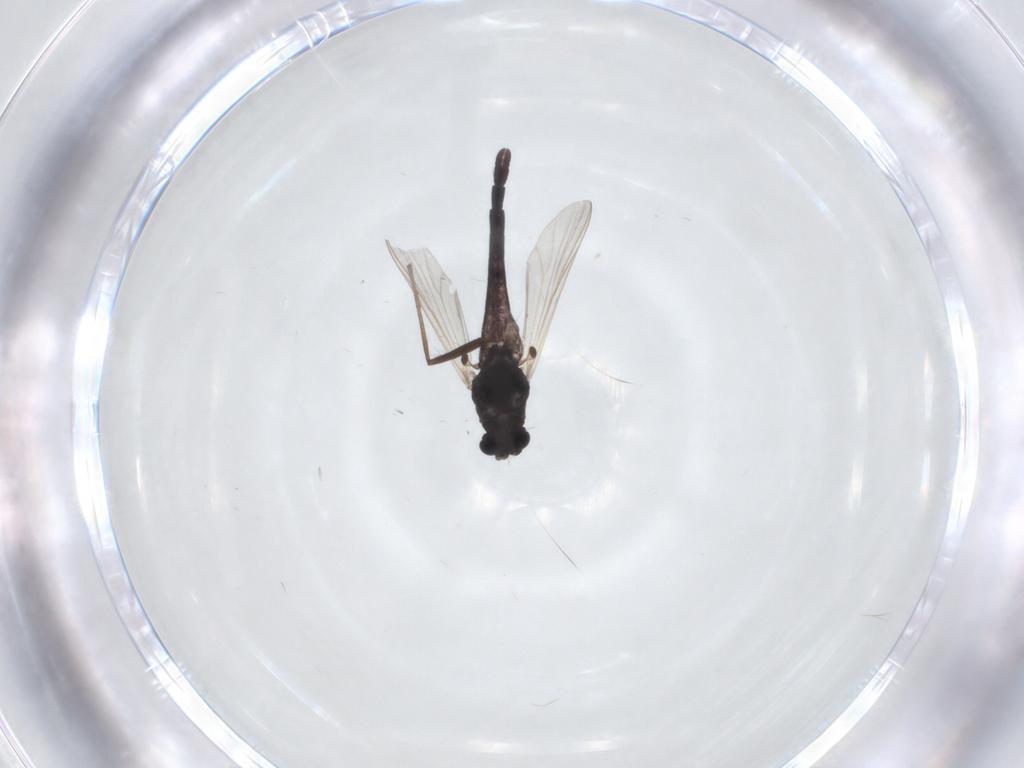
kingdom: Animalia
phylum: Arthropoda
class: Insecta
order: Diptera
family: Chironomidae
